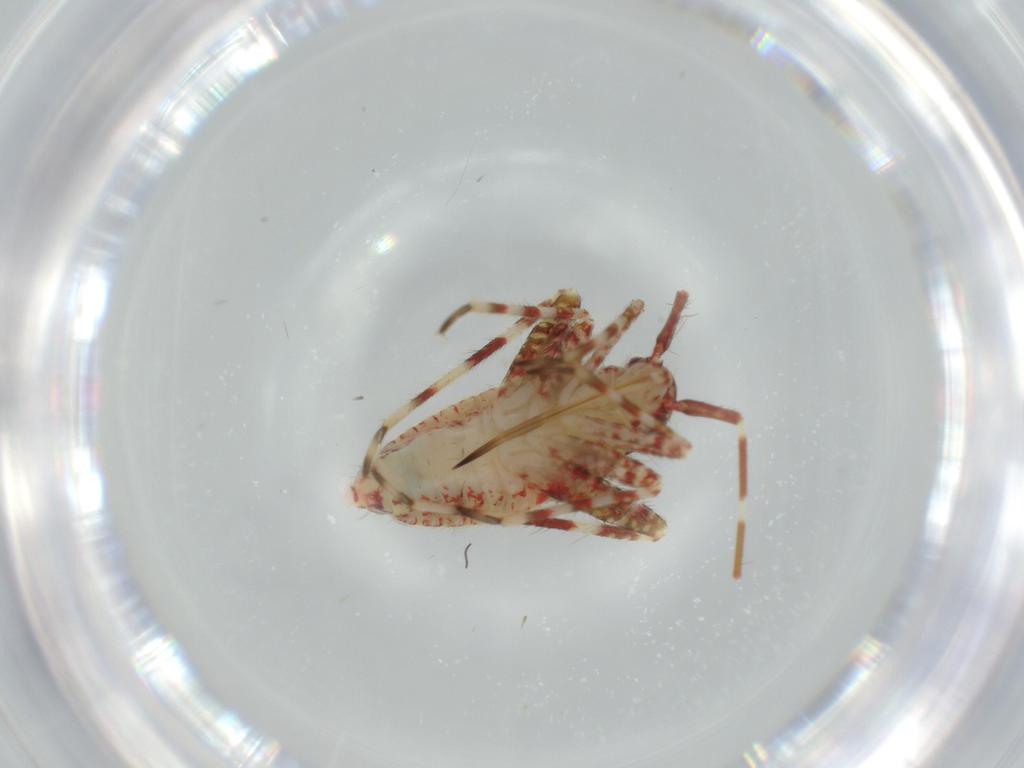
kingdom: Animalia
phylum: Arthropoda
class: Insecta
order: Hemiptera
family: Miridae
